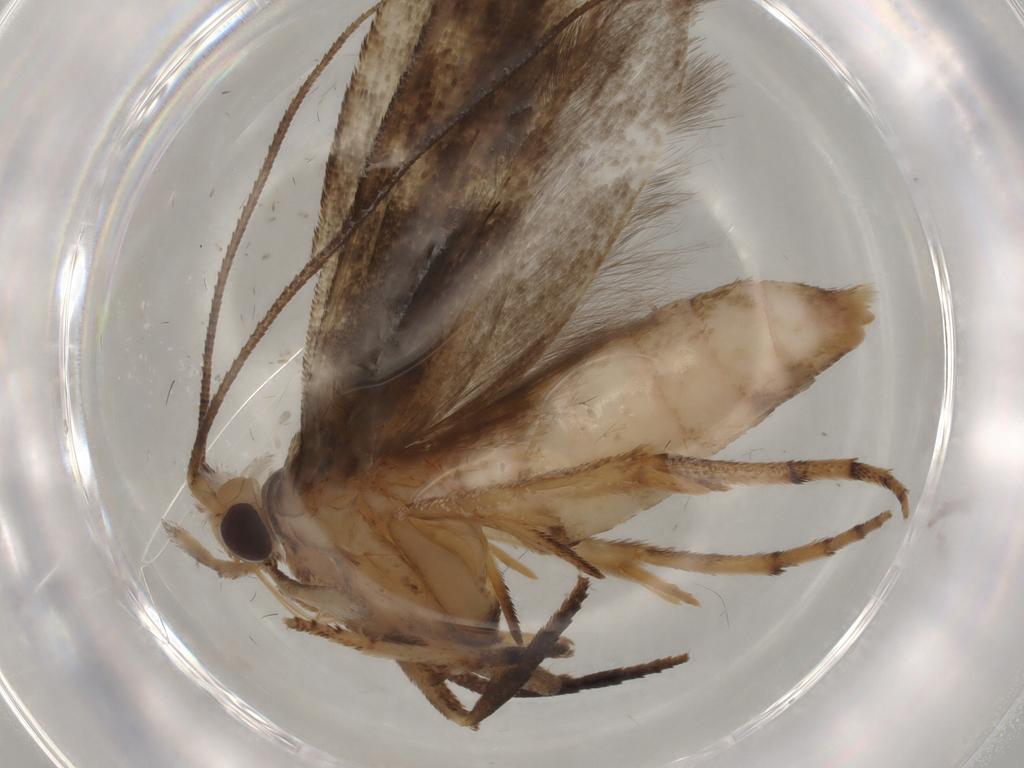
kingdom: Animalia
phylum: Arthropoda
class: Insecta
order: Lepidoptera
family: Yponomeutidae
